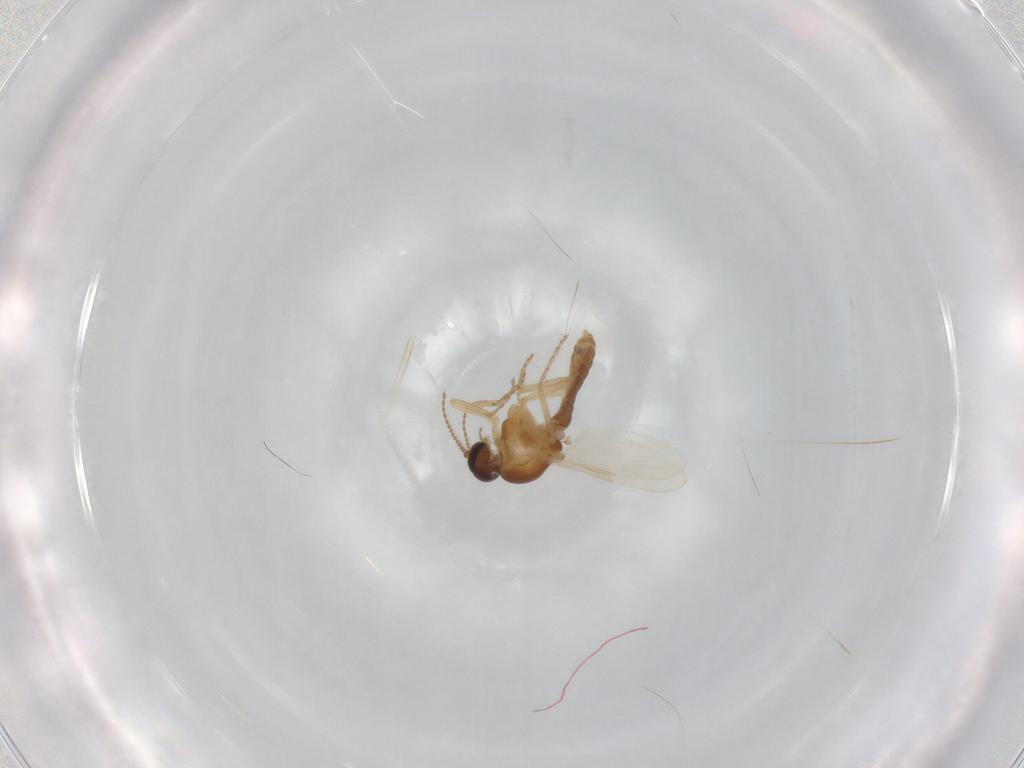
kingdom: Animalia
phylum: Arthropoda
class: Insecta
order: Diptera
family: Ceratopogonidae
